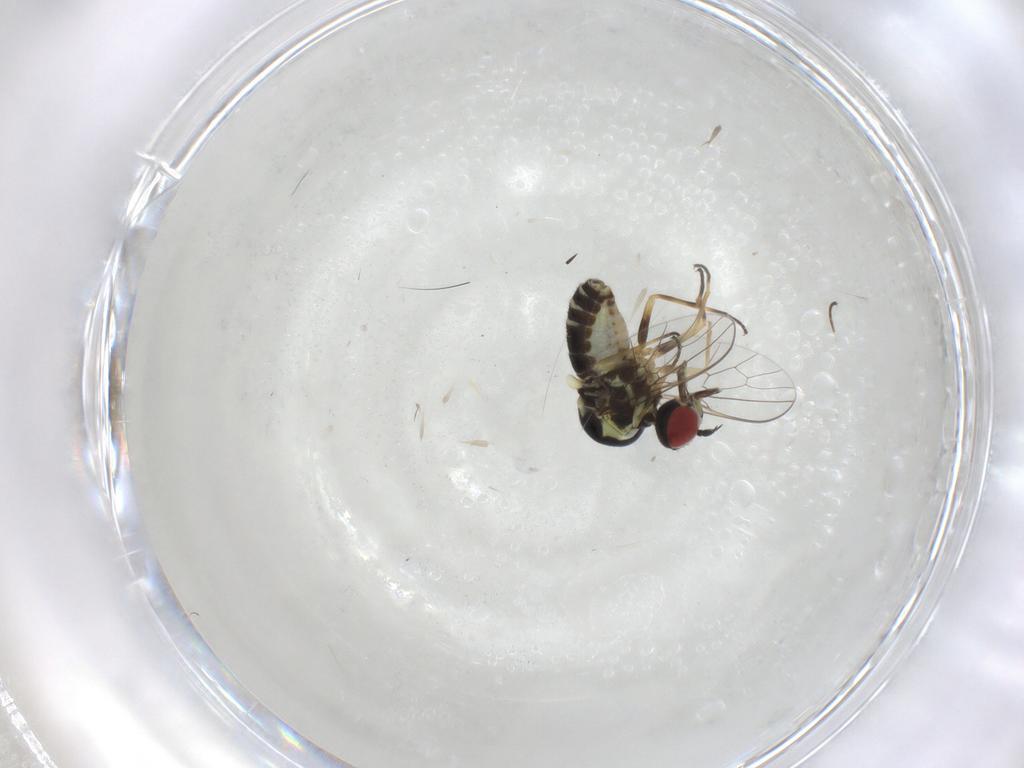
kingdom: Animalia
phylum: Arthropoda
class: Insecta
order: Diptera
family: Bombyliidae
